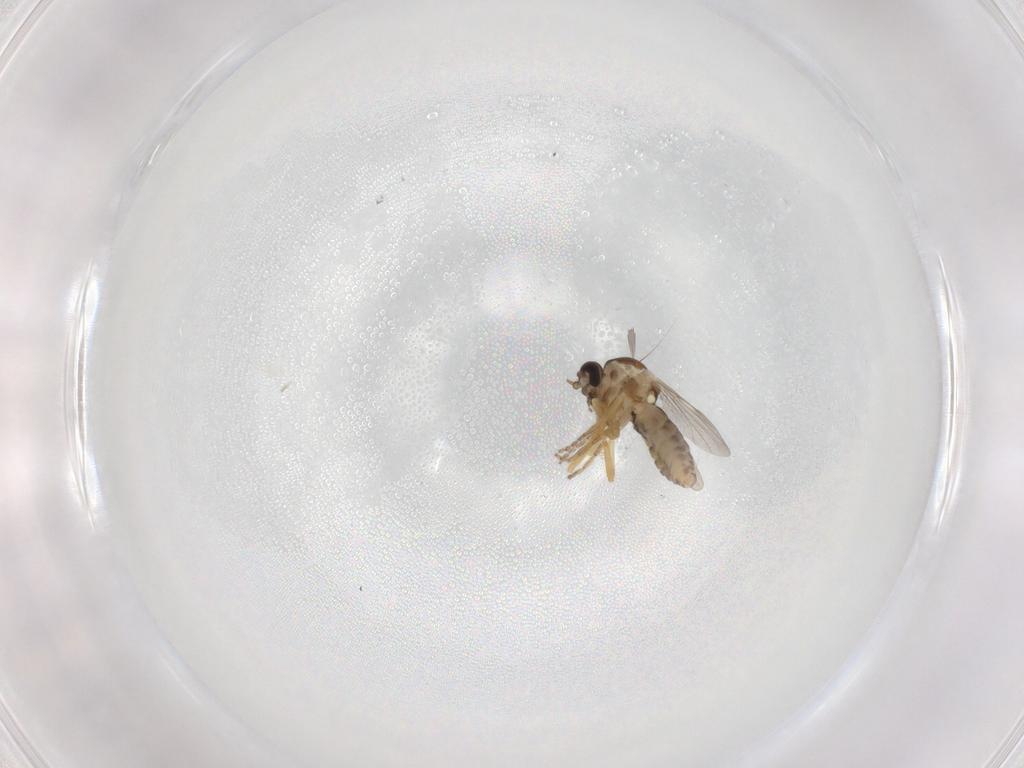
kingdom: Animalia
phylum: Arthropoda
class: Insecta
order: Diptera
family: Ceratopogonidae
